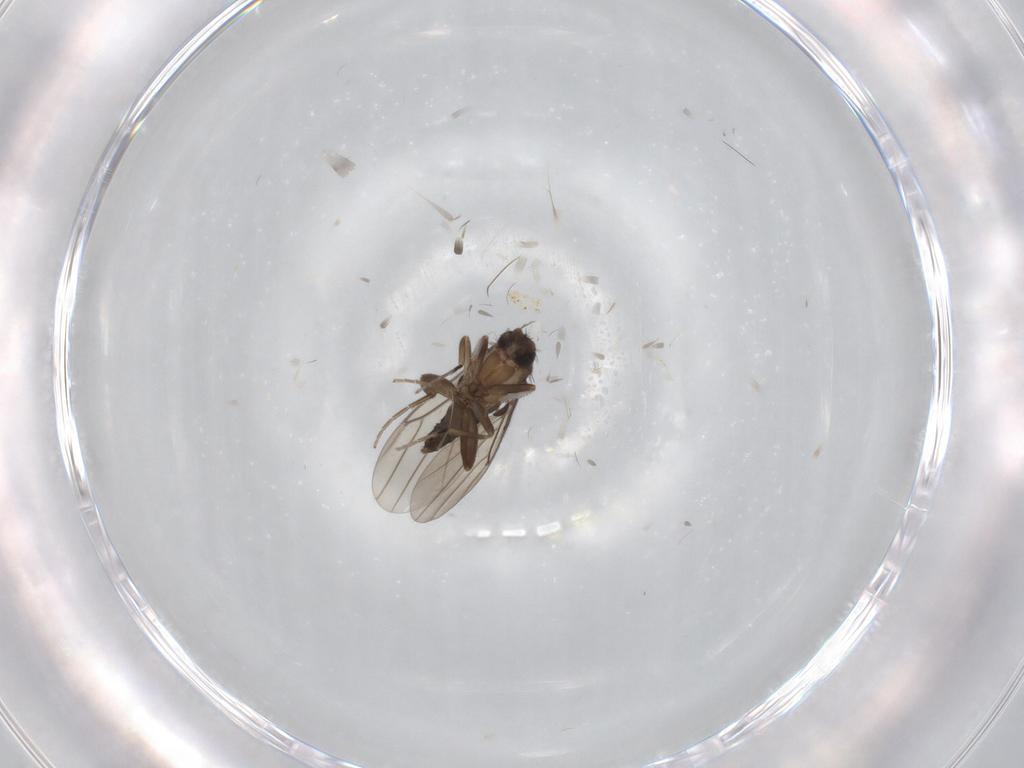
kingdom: Animalia
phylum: Arthropoda
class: Insecta
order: Diptera
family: Ceratopogonidae
